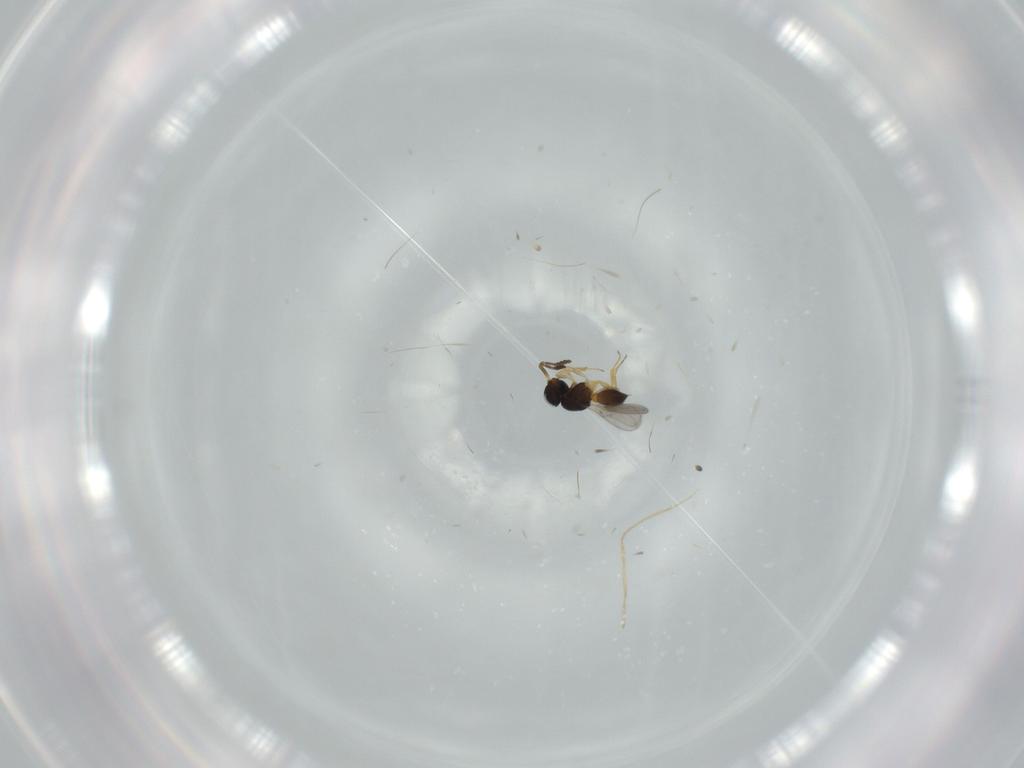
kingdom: Animalia
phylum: Arthropoda
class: Insecta
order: Hymenoptera
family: Scelionidae
